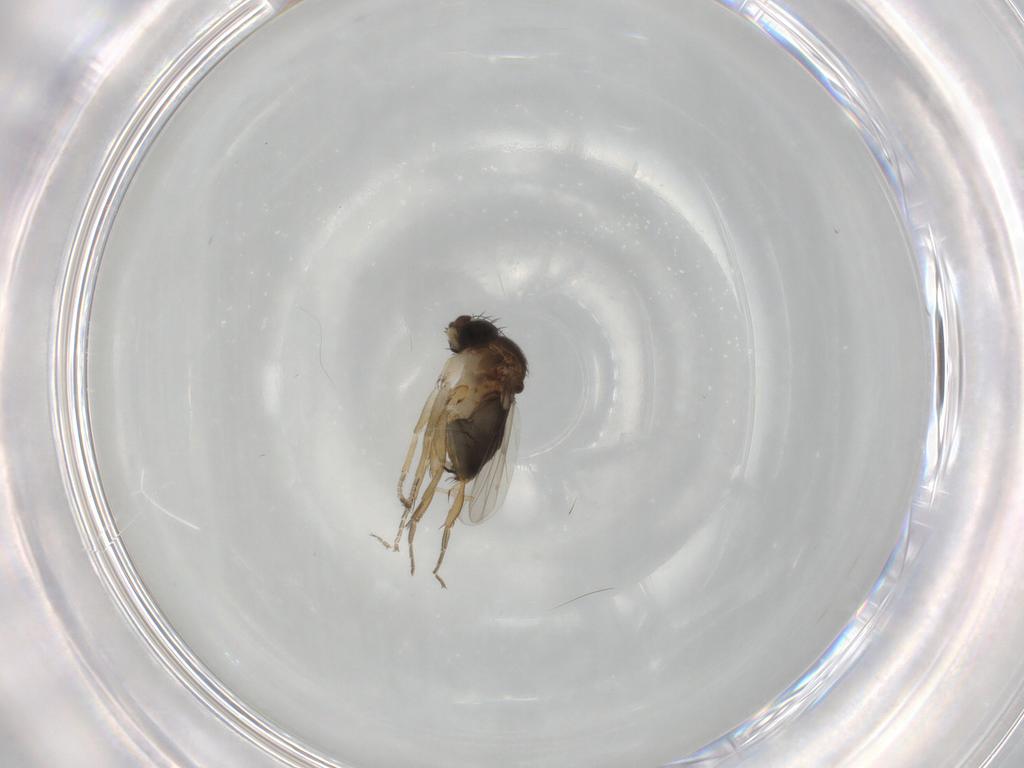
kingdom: Animalia
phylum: Arthropoda
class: Insecta
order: Diptera
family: Phoridae
